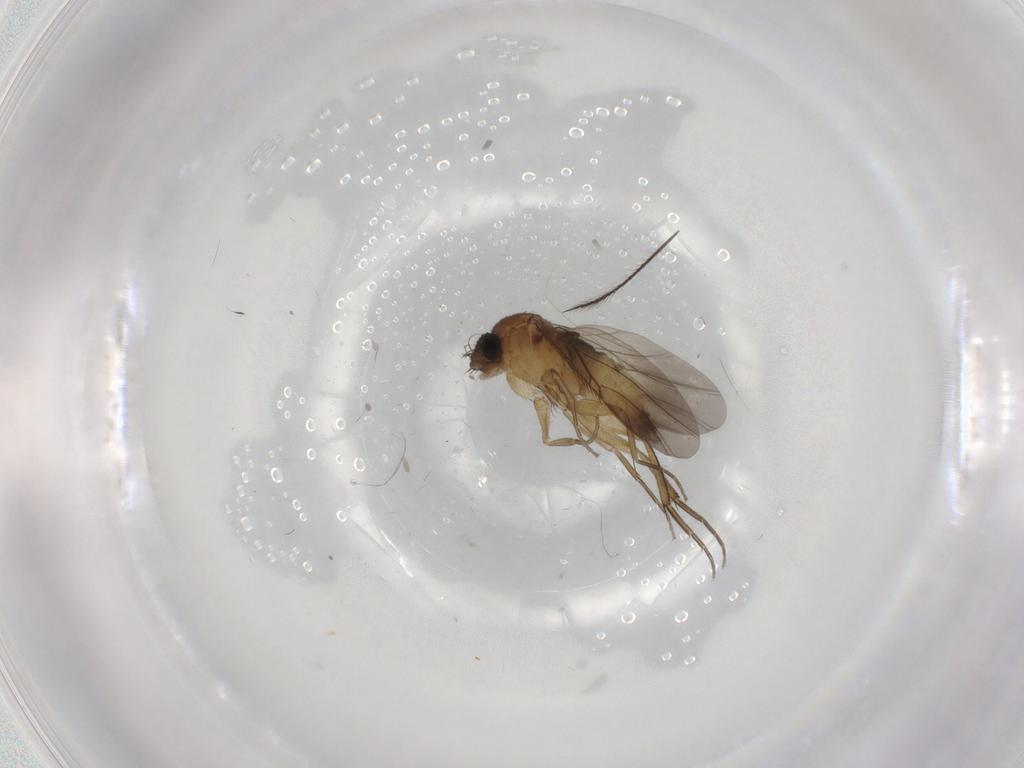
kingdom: Animalia
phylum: Arthropoda
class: Insecta
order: Diptera
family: Phoridae
